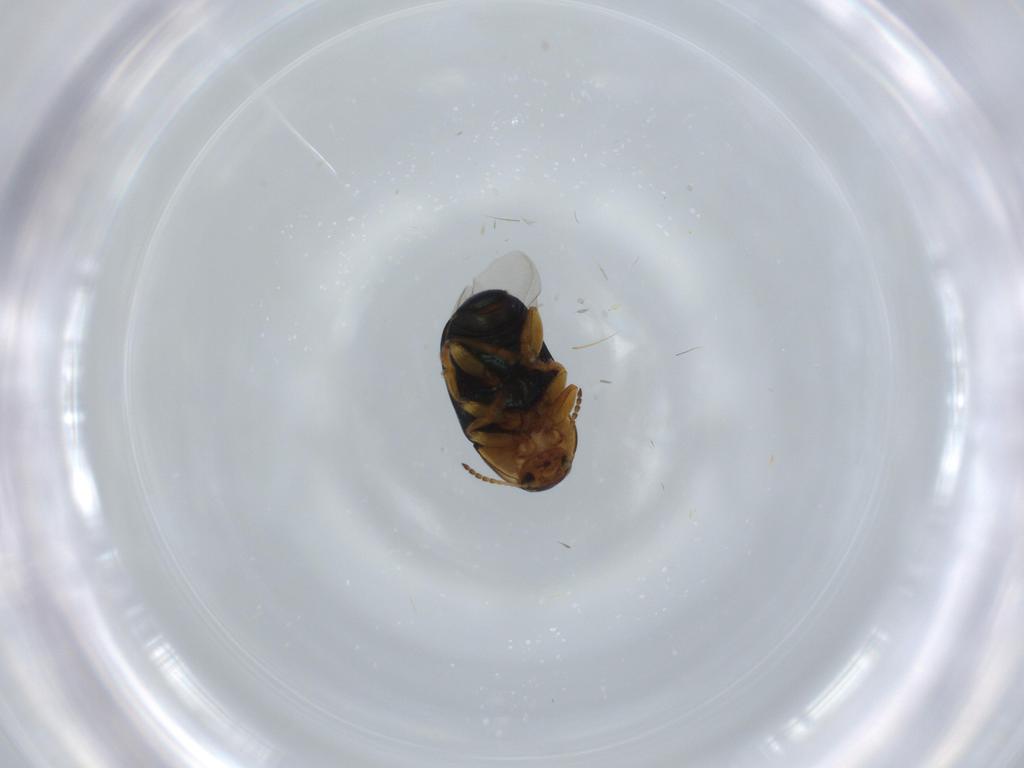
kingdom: Animalia
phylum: Arthropoda
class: Insecta
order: Coleoptera
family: Chrysomelidae
